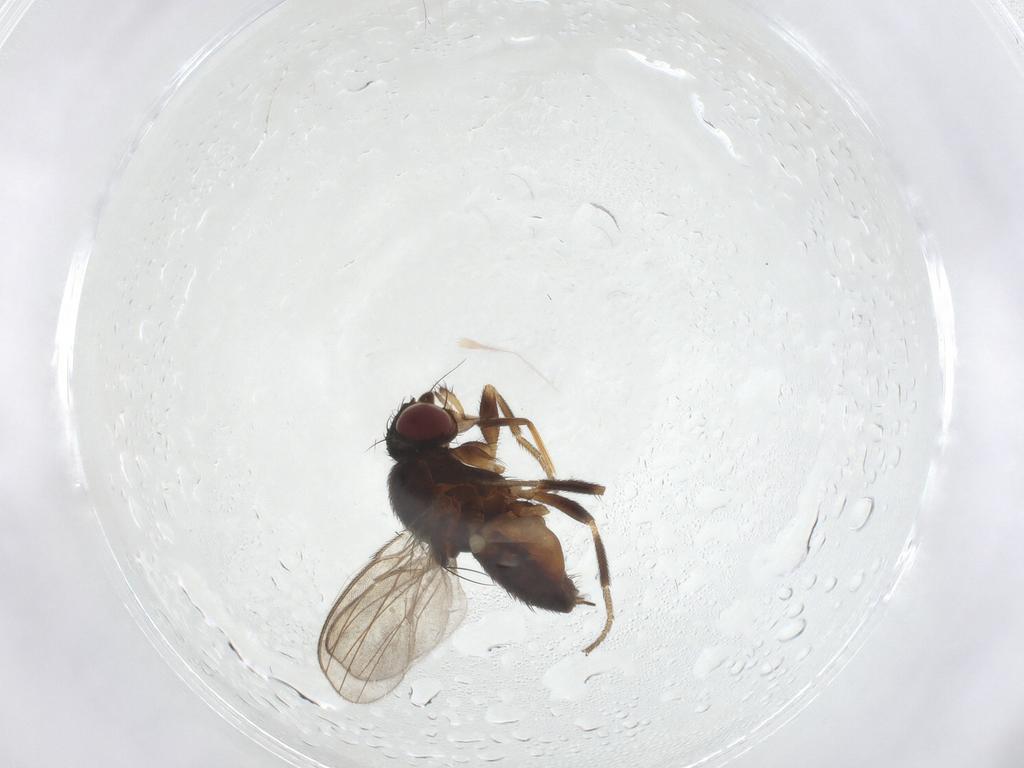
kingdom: Animalia
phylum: Arthropoda
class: Insecta
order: Diptera
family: Milichiidae
